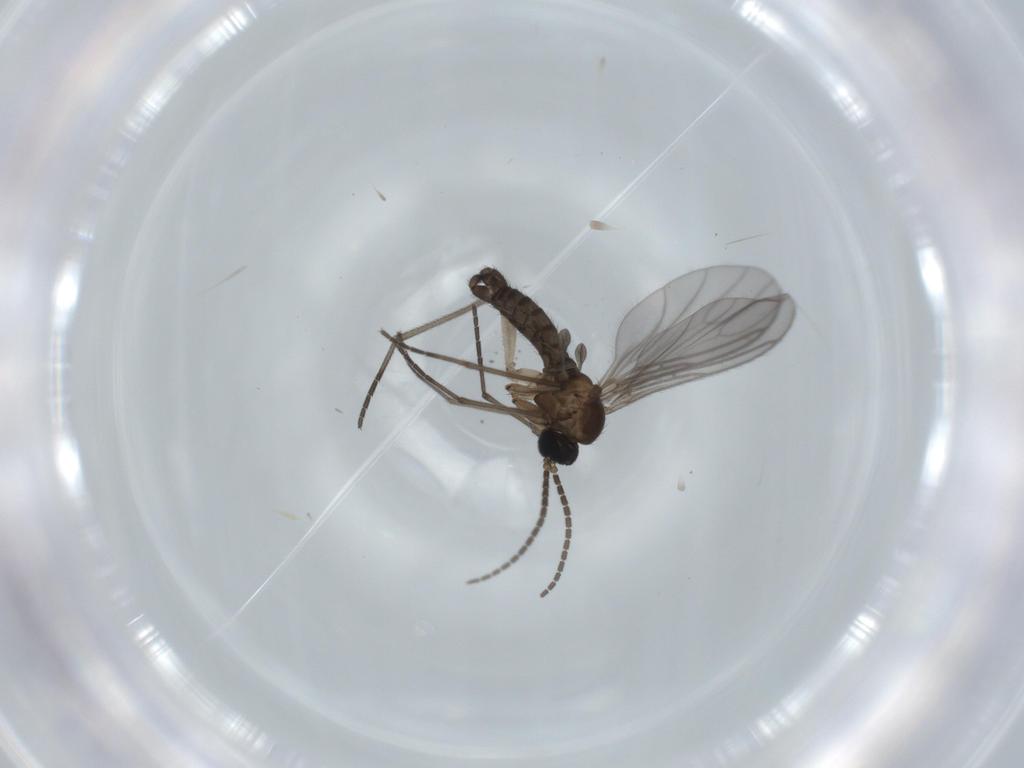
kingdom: Animalia
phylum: Arthropoda
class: Insecta
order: Diptera
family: Sciaridae
